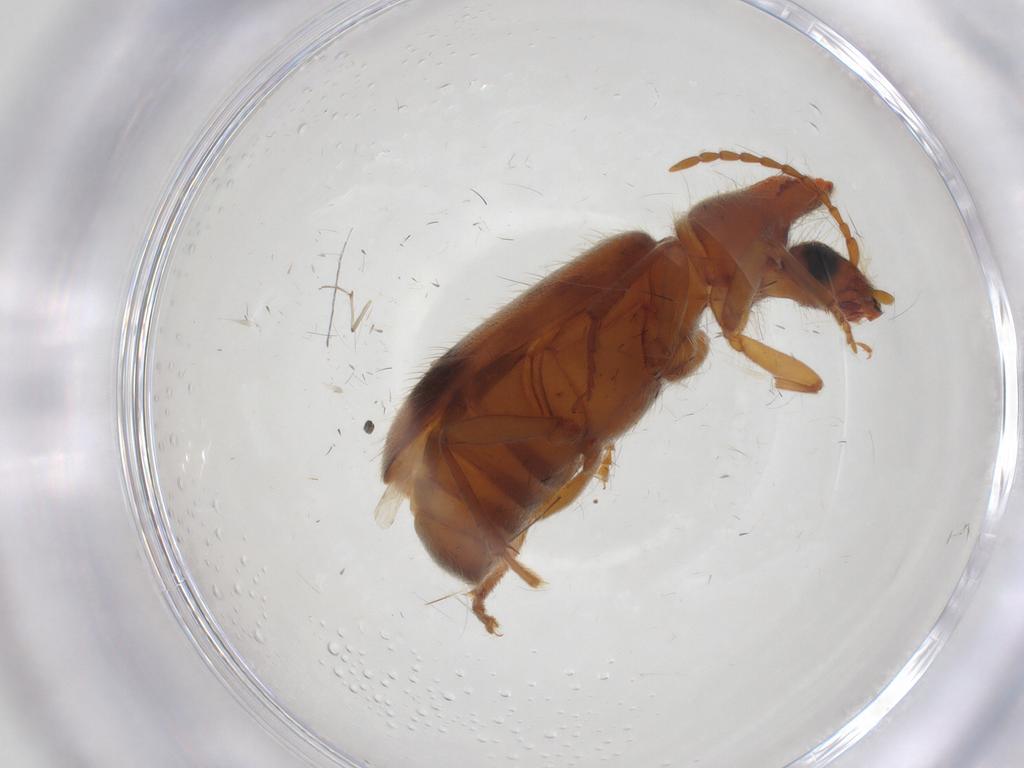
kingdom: Animalia
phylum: Arthropoda
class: Insecta
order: Coleoptera
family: Anthicidae
